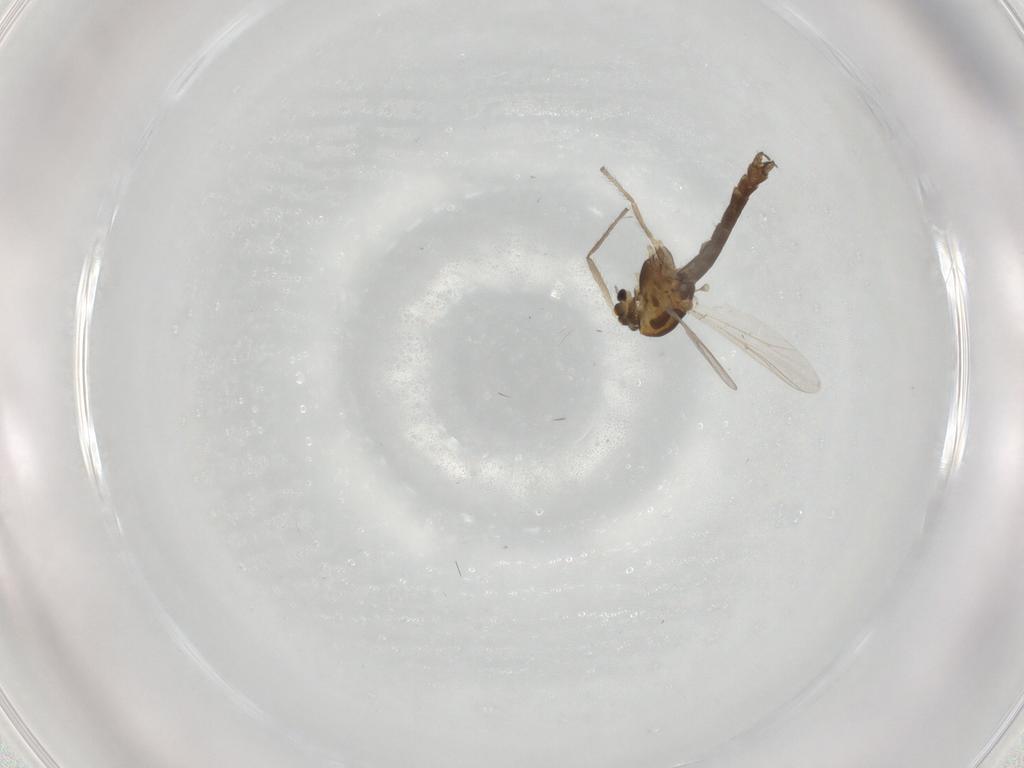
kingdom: Animalia
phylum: Arthropoda
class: Insecta
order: Diptera
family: Chironomidae
